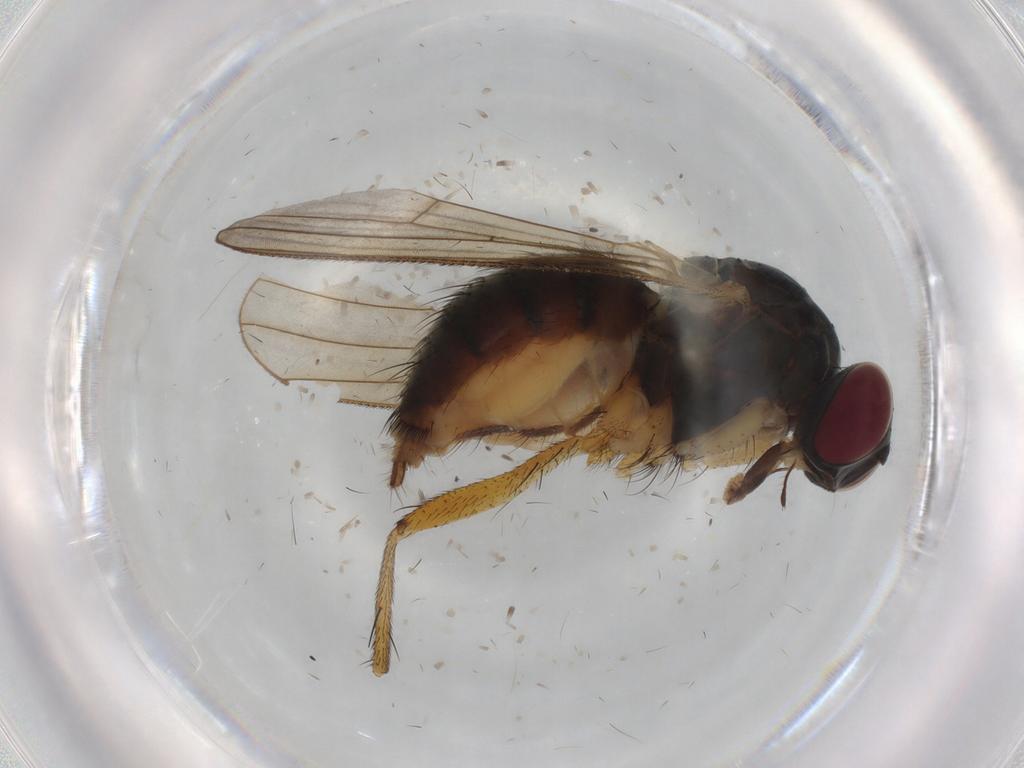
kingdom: Animalia
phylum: Arthropoda
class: Insecta
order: Diptera
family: Muscidae
